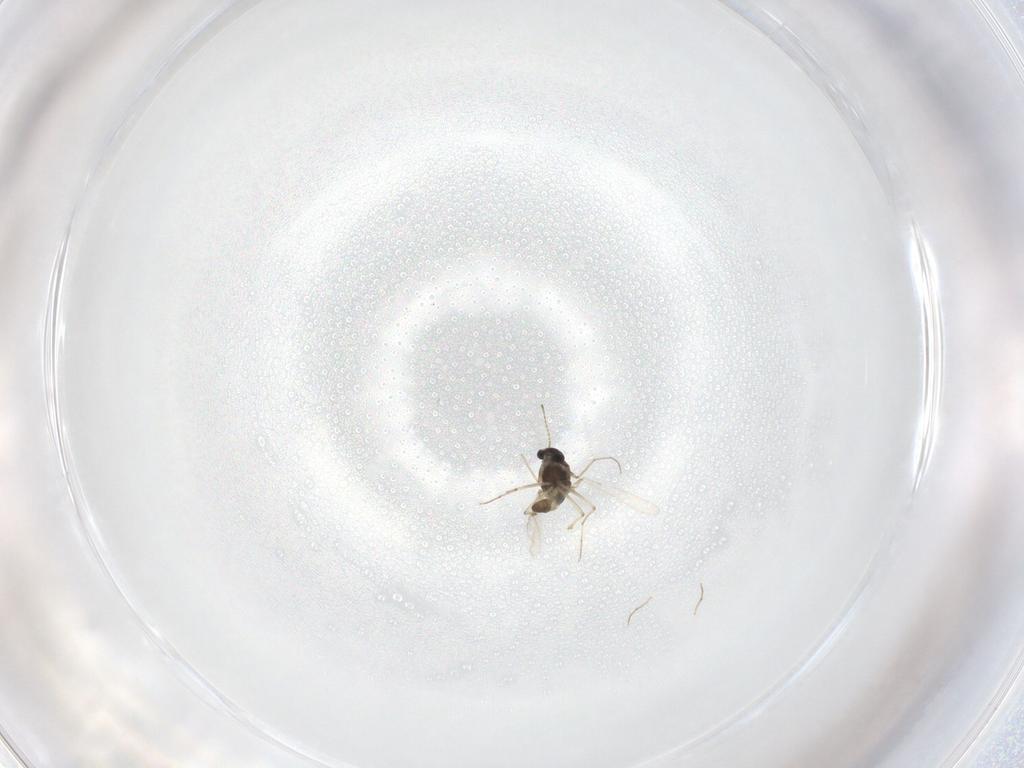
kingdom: Animalia
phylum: Arthropoda
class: Insecta
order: Diptera
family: Chironomidae
